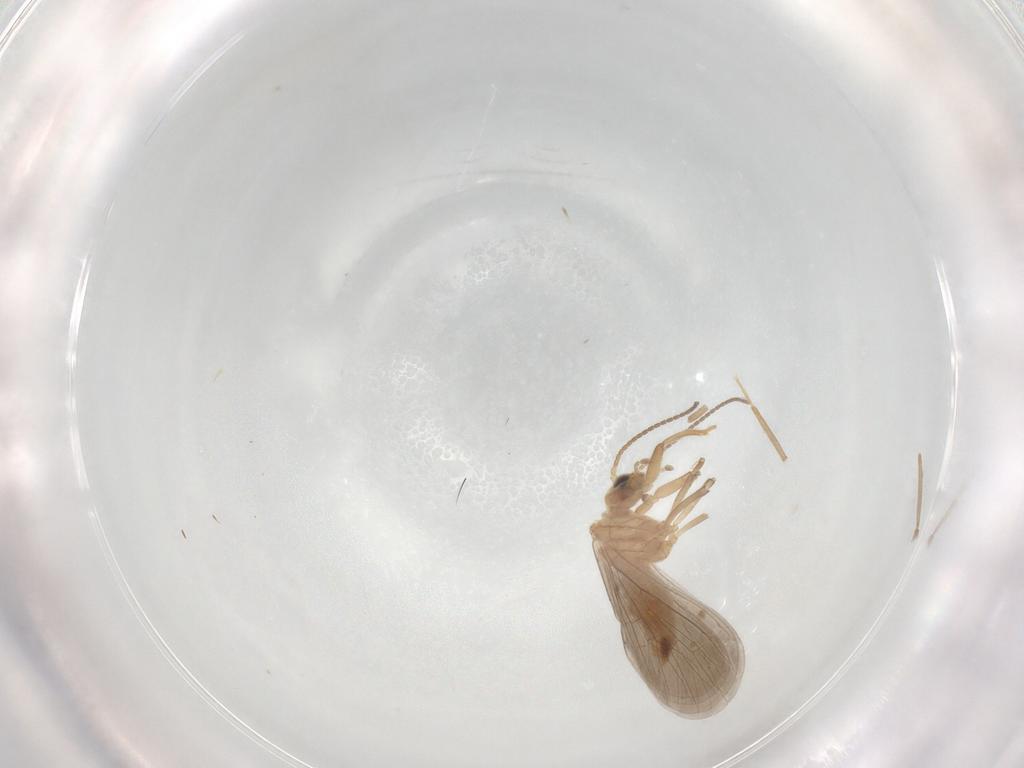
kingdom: Animalia
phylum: Arthropoda
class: Insecta
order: Neuroptera
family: Coniopterygidae
